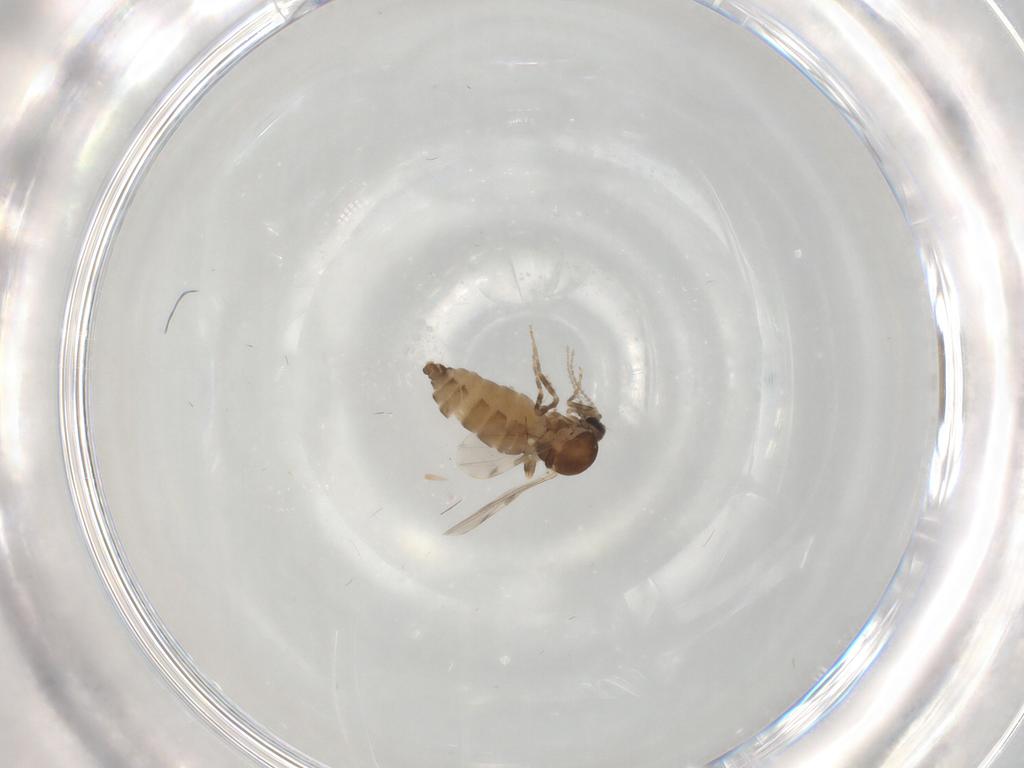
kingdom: Animalia
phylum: Arthropoda
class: Insecta
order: Diptera
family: Ceratopogonidae
